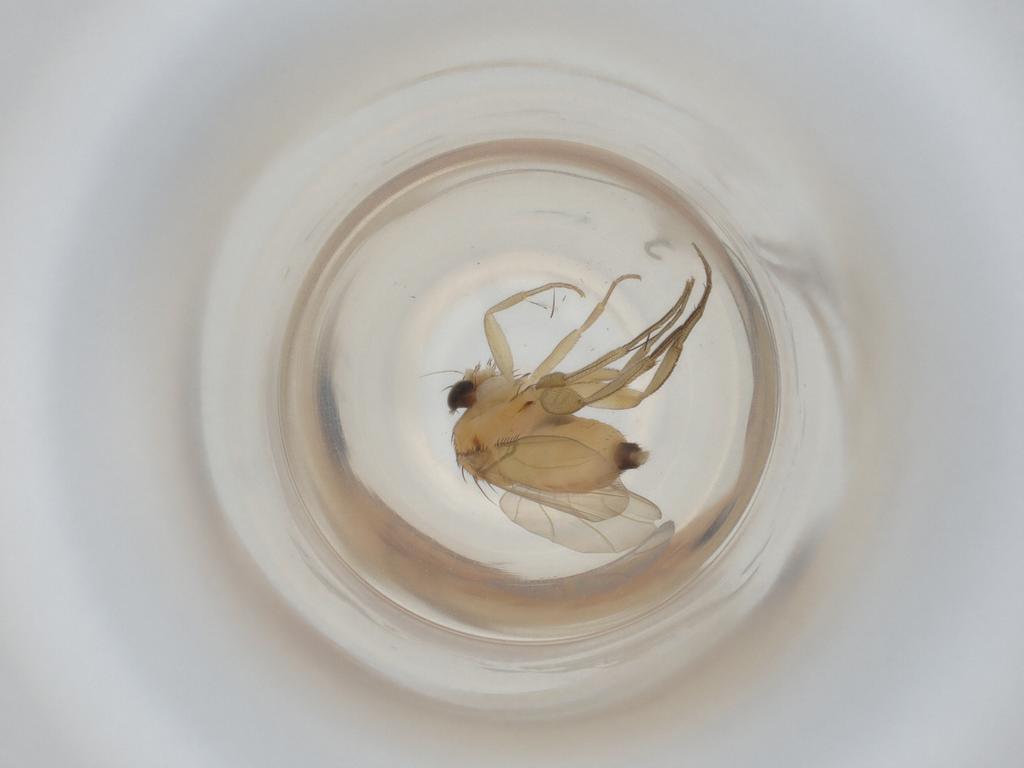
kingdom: Animalia
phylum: Arthropoda
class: Insecta
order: Diptera
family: Phoridae
